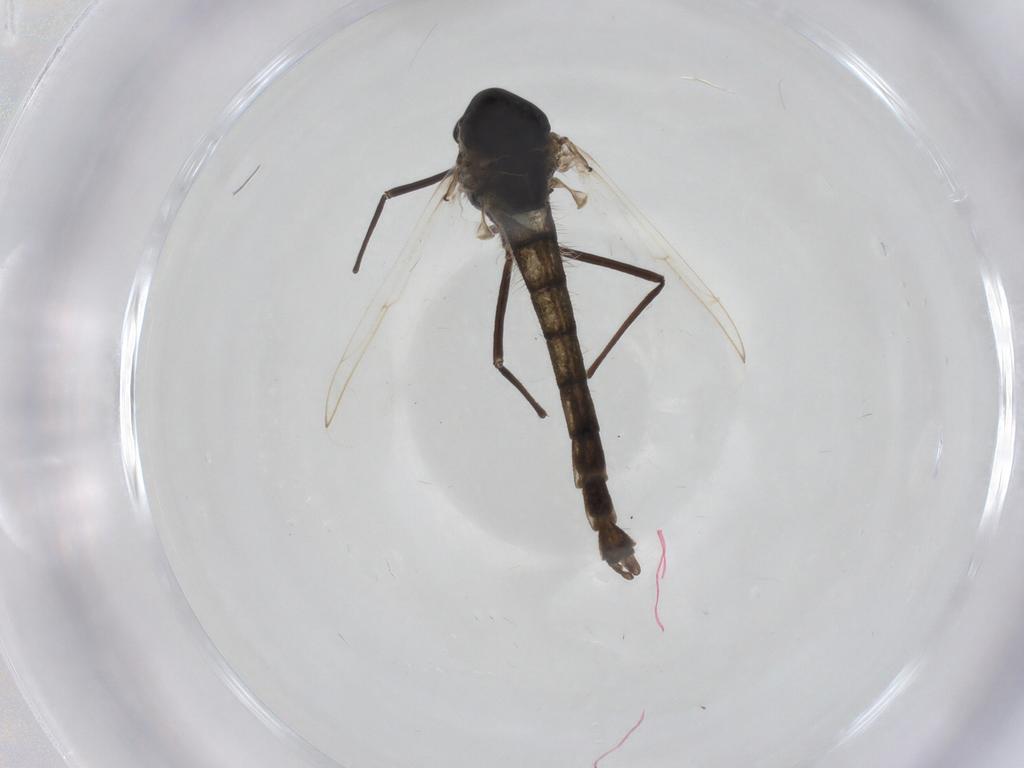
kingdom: Animalia
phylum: Arthropoda
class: Insecta
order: Diptera
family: Chironomidae
